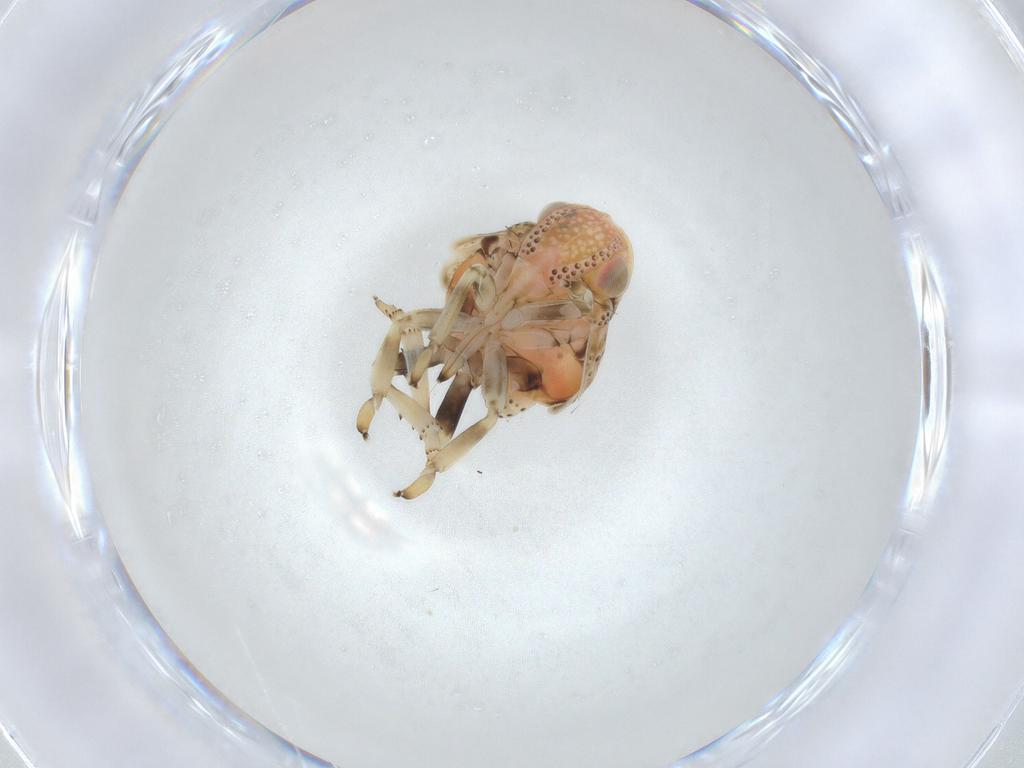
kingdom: Animalia
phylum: Arthropoda
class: Insecta
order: Hemiptera
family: Nogodinidae
